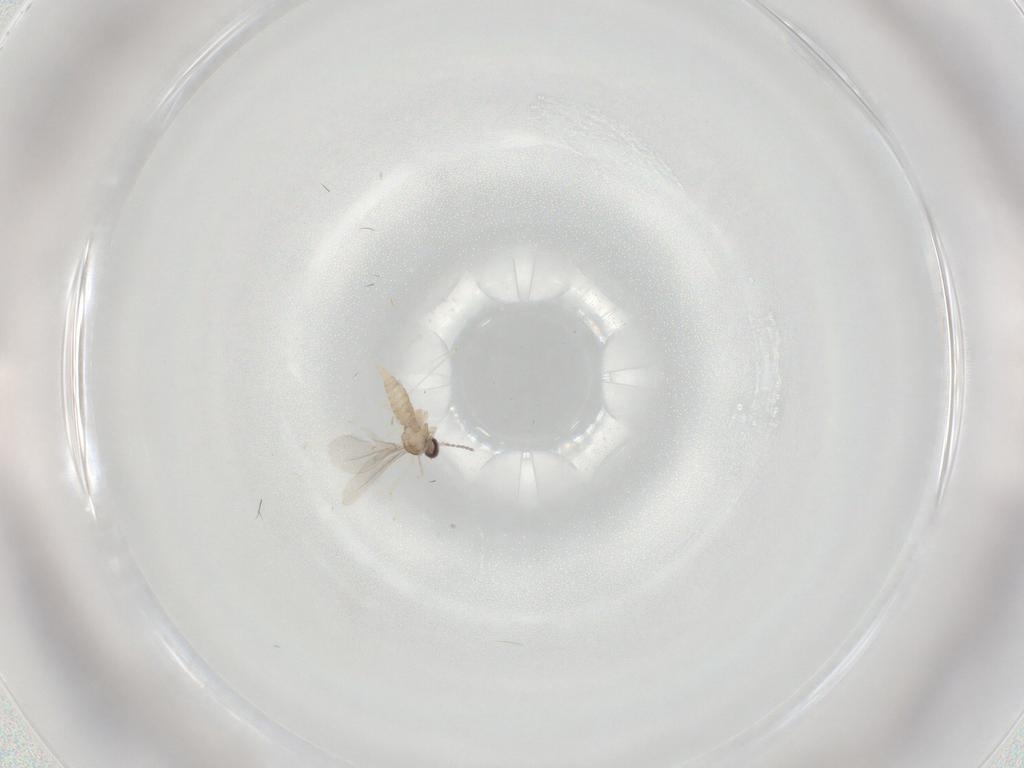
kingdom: Animalia
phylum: Arthropoda
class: Insecta
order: Diptera
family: Cecidomyiidae
